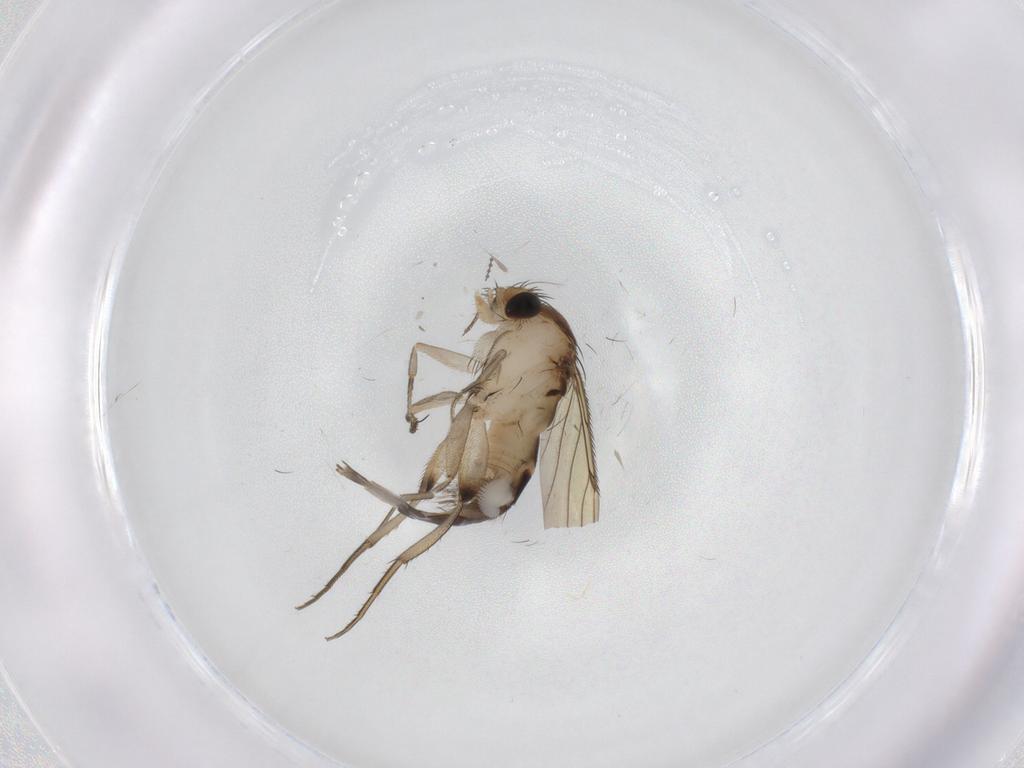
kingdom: Animalia
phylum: Arthropoda
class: Insecta
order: Diptera
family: Phoridae
